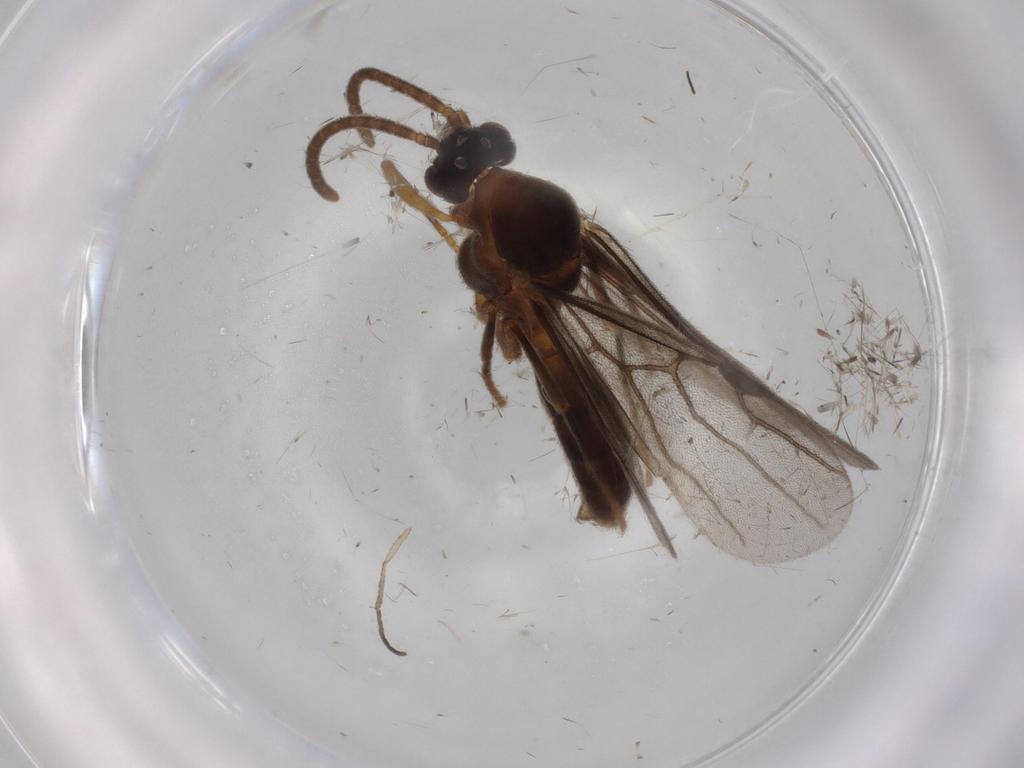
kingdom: Animalia
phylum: Arthropoda
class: Insecta
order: Hymenoptera
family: Formicidae
